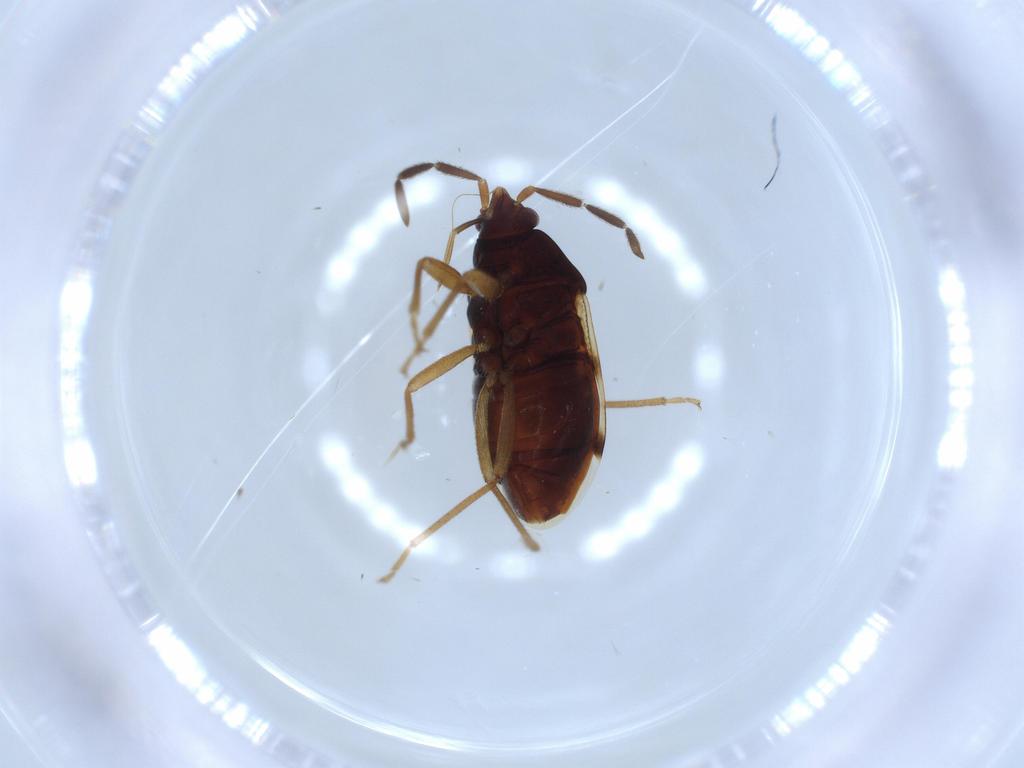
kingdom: Animalia
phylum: Arthropoda
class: Insecta
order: Hemiptera
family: Rhyparochromidae
